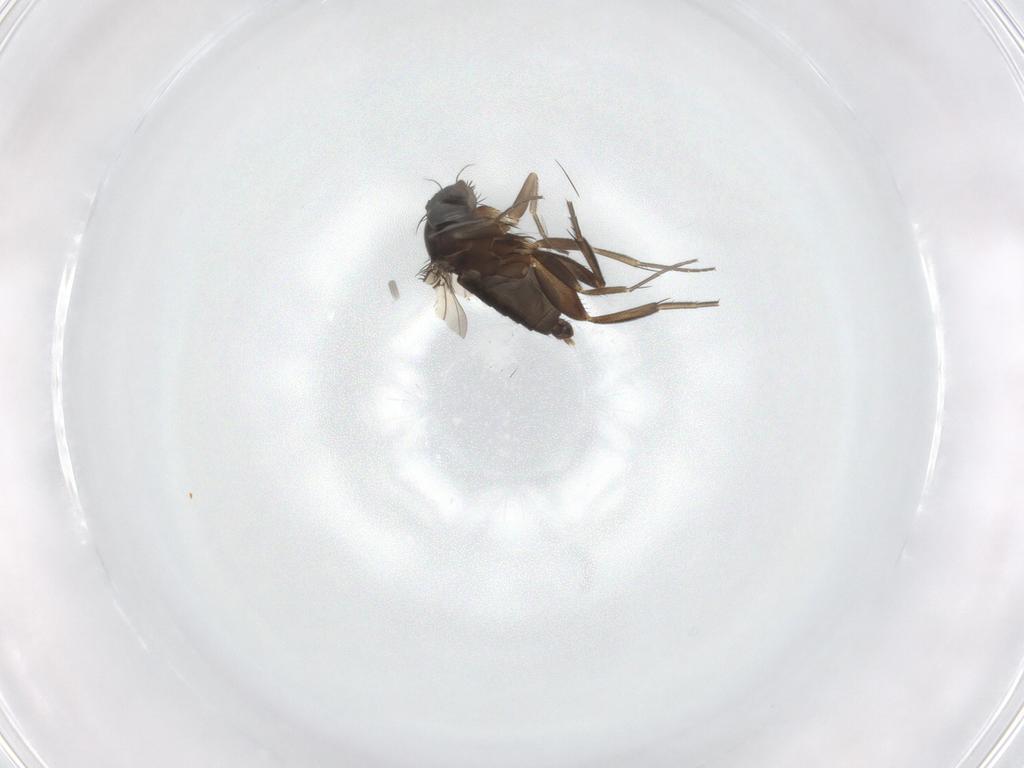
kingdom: Animalia
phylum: Arthropoda
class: Insecta
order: Diptera
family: Phoridae
